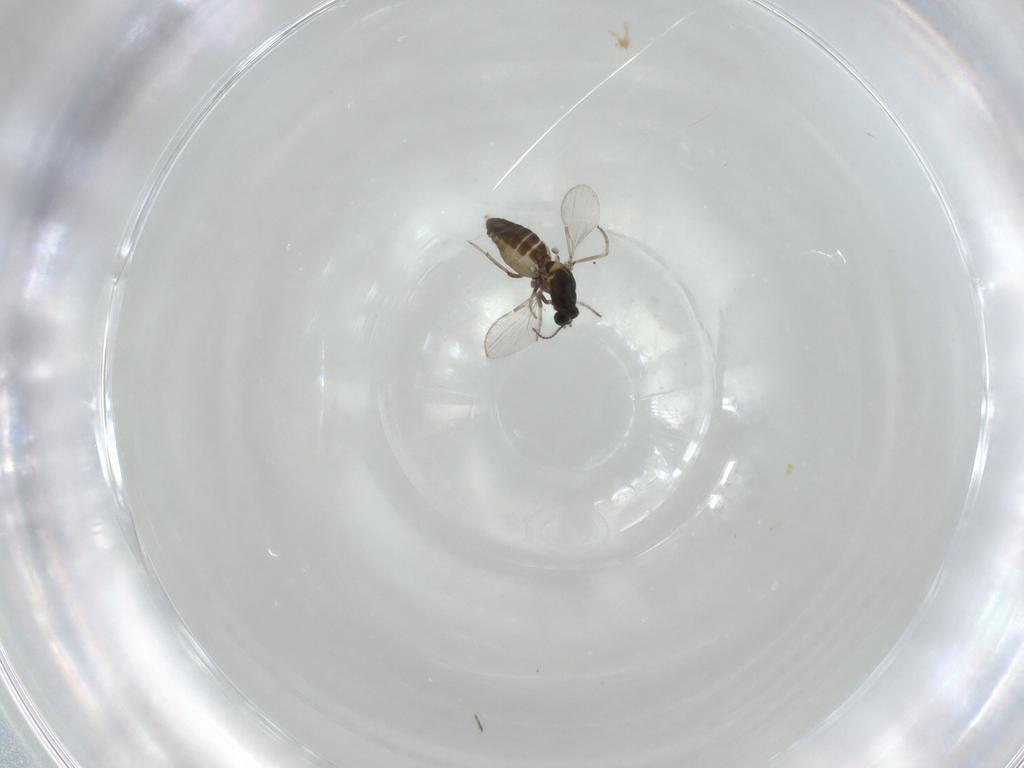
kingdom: Animalia
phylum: Arthropoda
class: Insecta
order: Diptera
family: Ceratopogonidae
